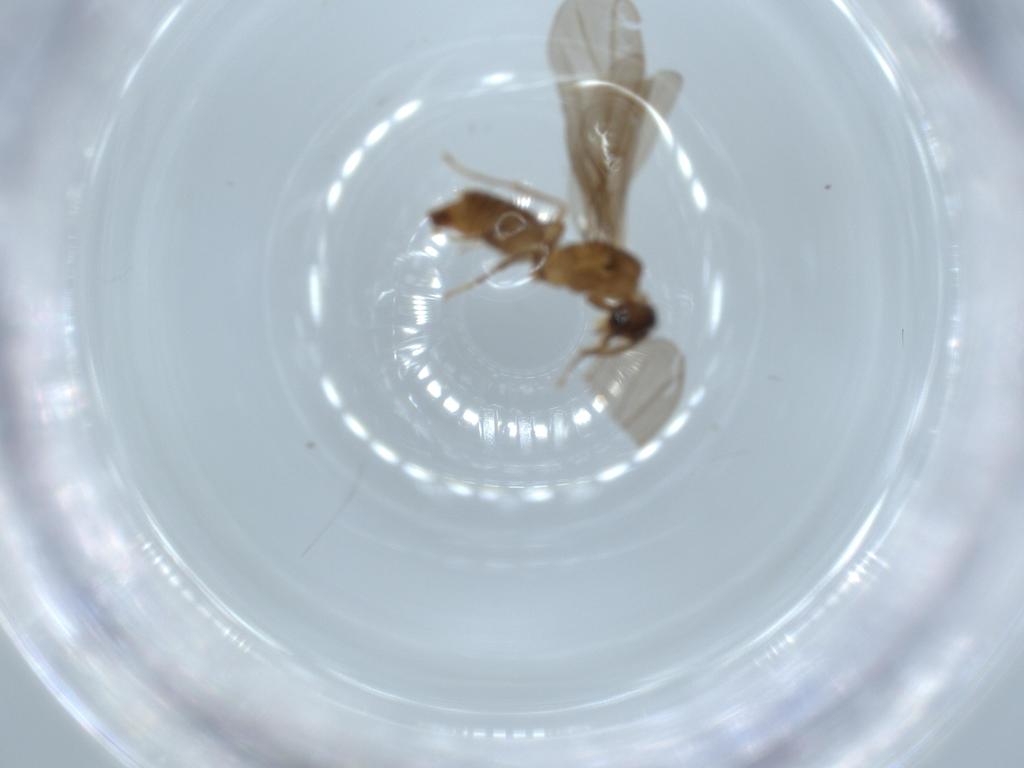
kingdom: Animalia
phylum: Arthropoda
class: Insecta
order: Hymenoptera
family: Formicidae
